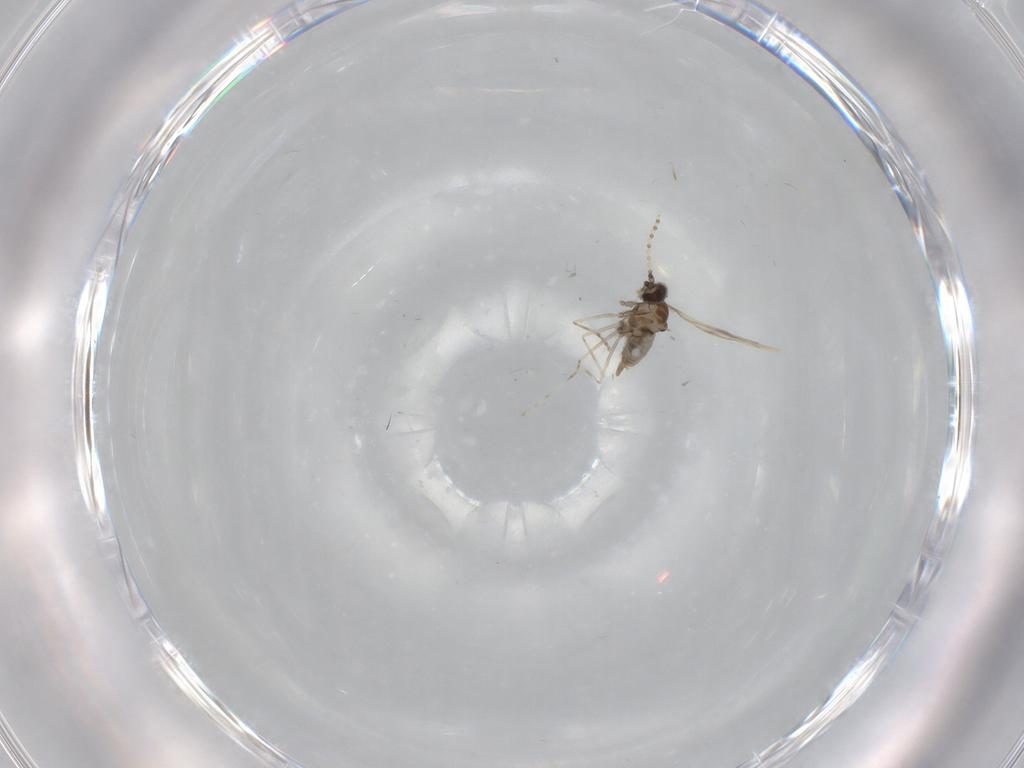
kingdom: Animalia
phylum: Arthropoda
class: Insecta
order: Diptera
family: Cecidomyiidae
